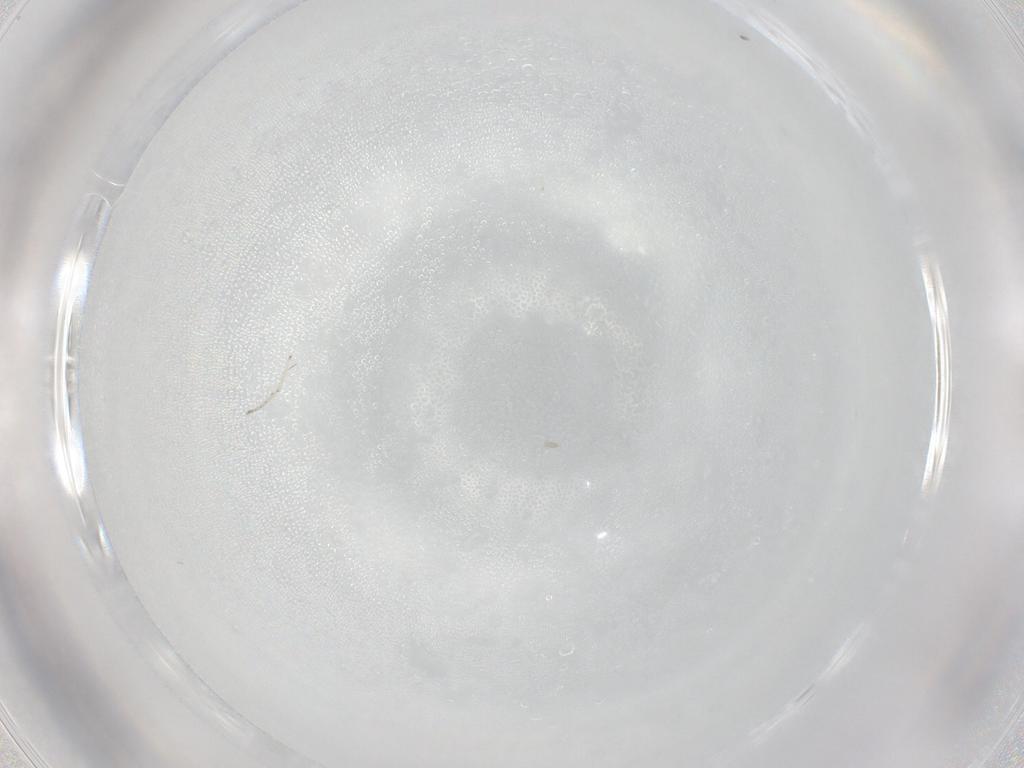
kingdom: Animalia
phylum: Arthropoda
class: Insecta
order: Diptera
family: Cecidomyiidae
